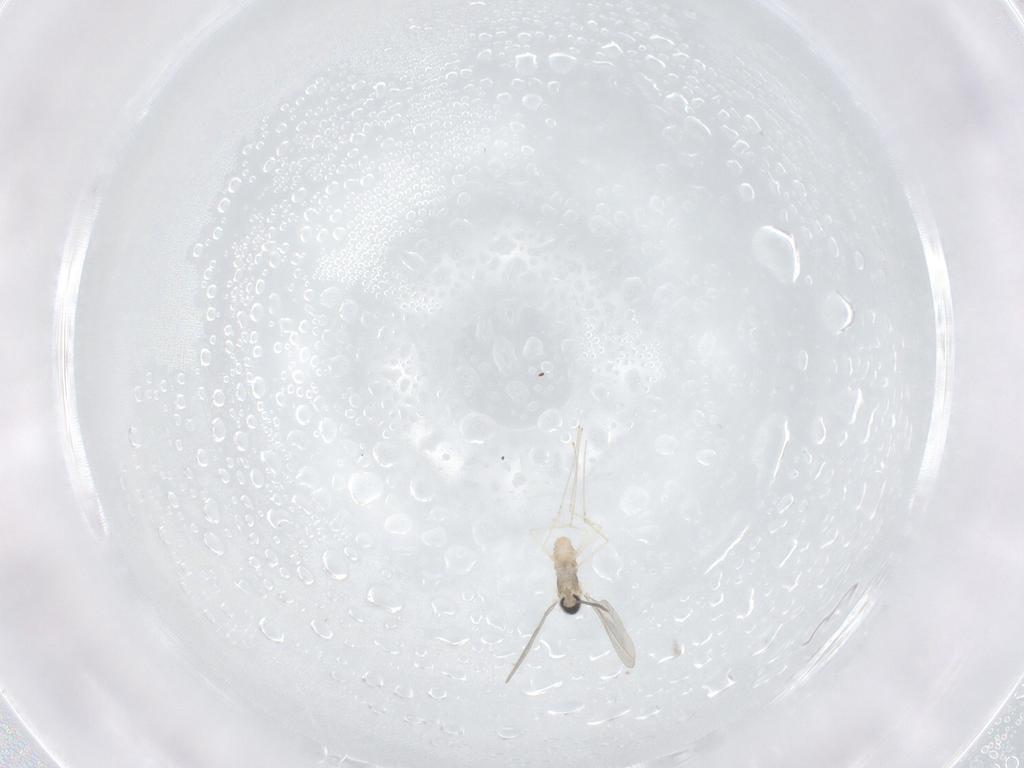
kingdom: Animalia
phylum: Arthropoda
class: Insecta
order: Diptera
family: Cecidomyiidae
